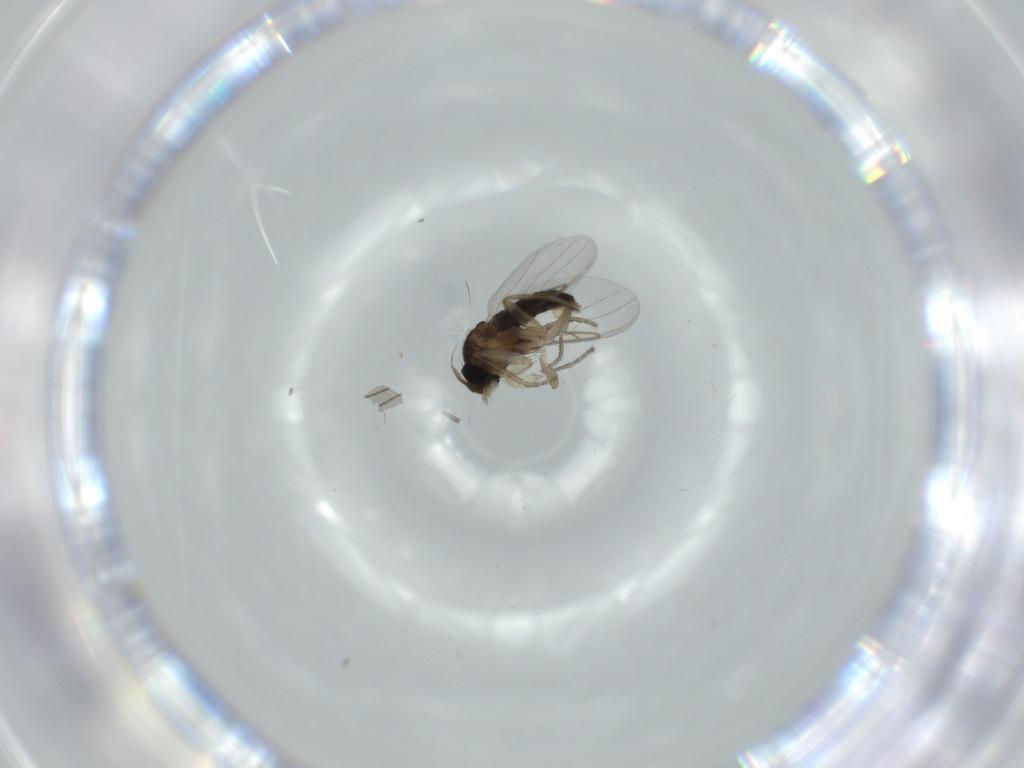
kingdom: Animalia
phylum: Arthropoda
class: Insecta
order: Diptera
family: Phoridae
